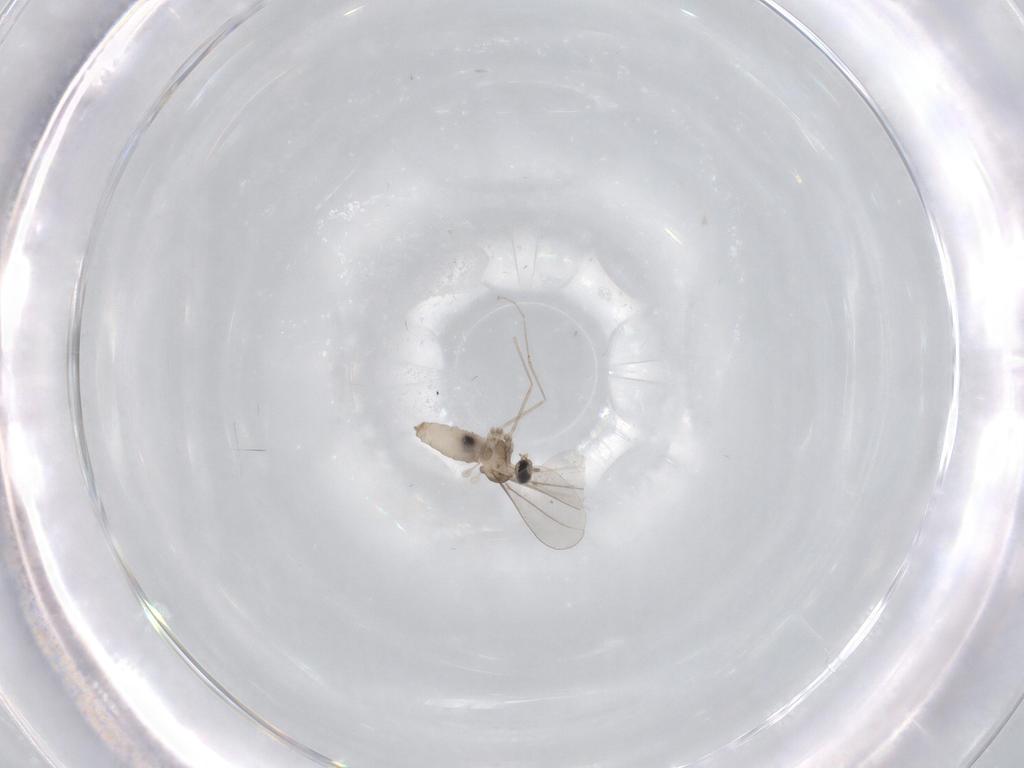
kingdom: Animalia
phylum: Arthropoda
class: Insecta
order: Diptera
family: Cecidomyiidae
